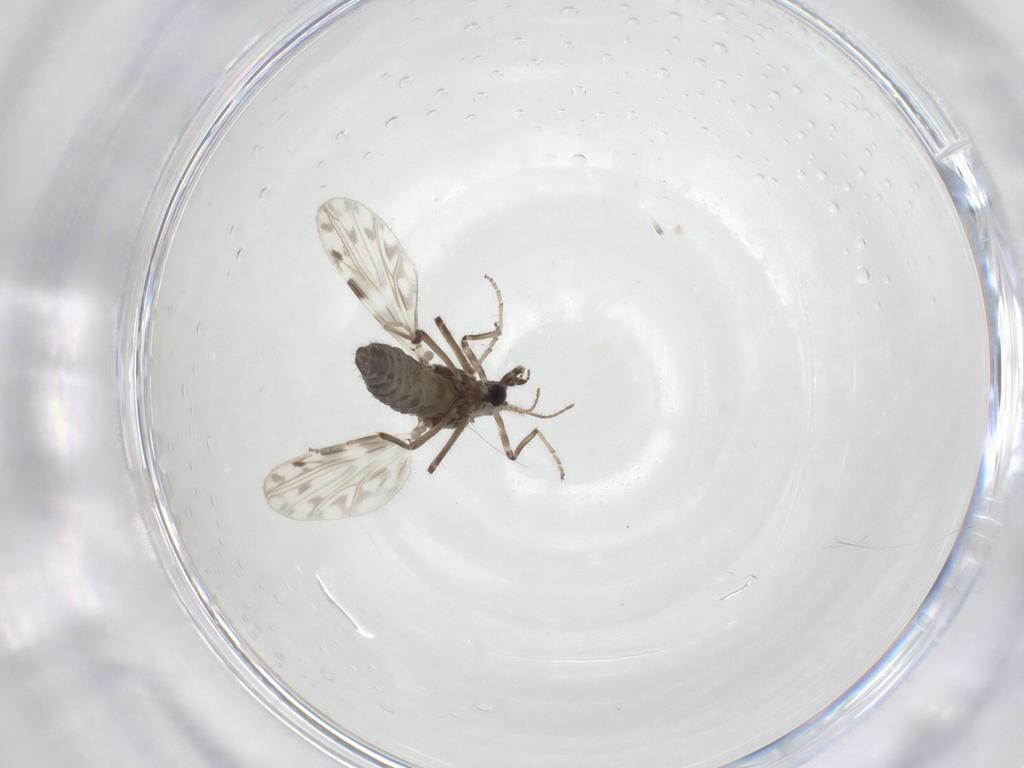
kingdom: Animalia
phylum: Arthropoda
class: Insecta
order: Diptera
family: Ceratopogonidae
